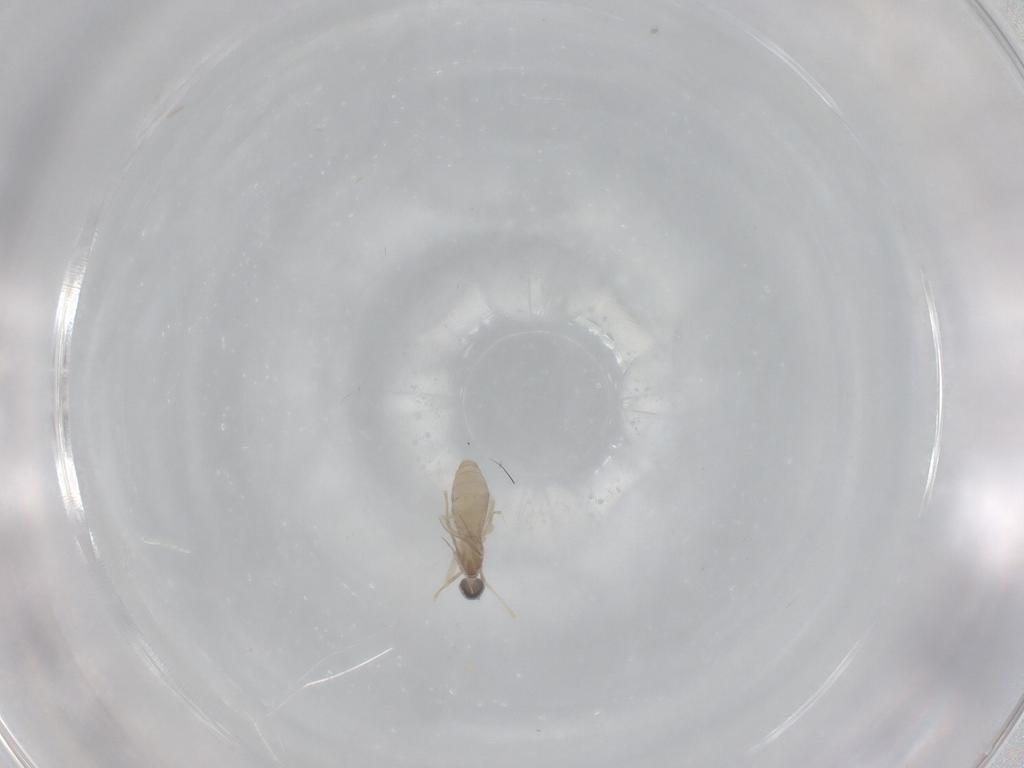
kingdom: Animalia
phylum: Arthropoda
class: Insecta
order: Diptera
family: Cecidomyiidae
